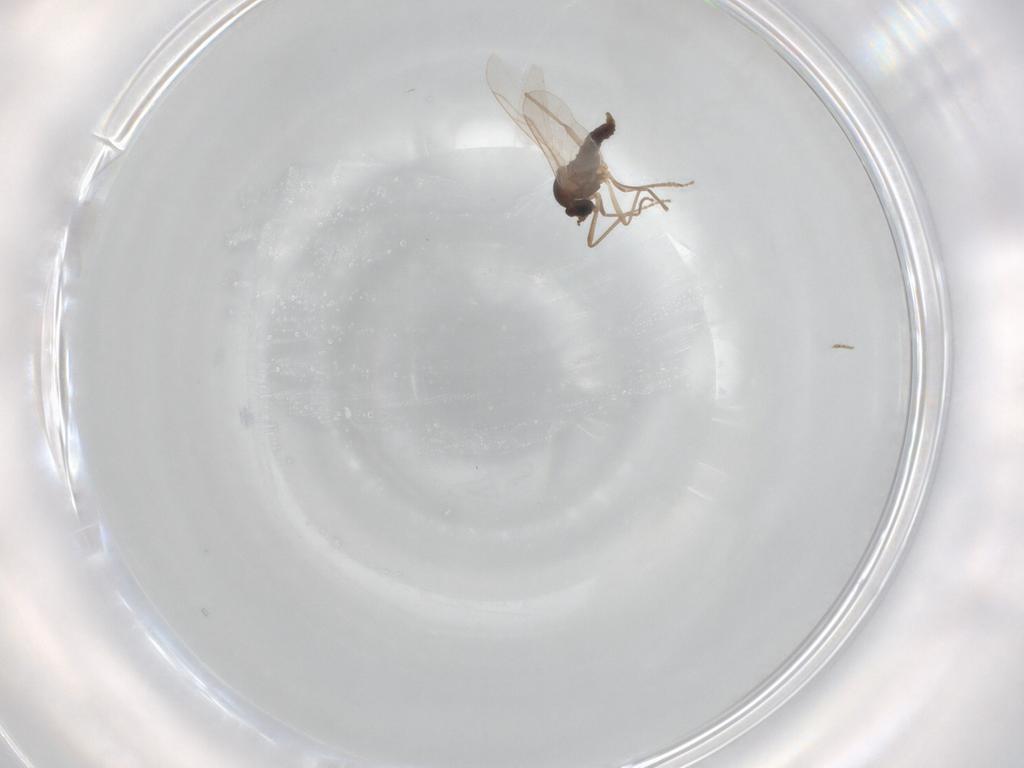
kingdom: Animalia
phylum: Arthropoda
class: Insecta
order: Diptera
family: Cecidomyiidae
